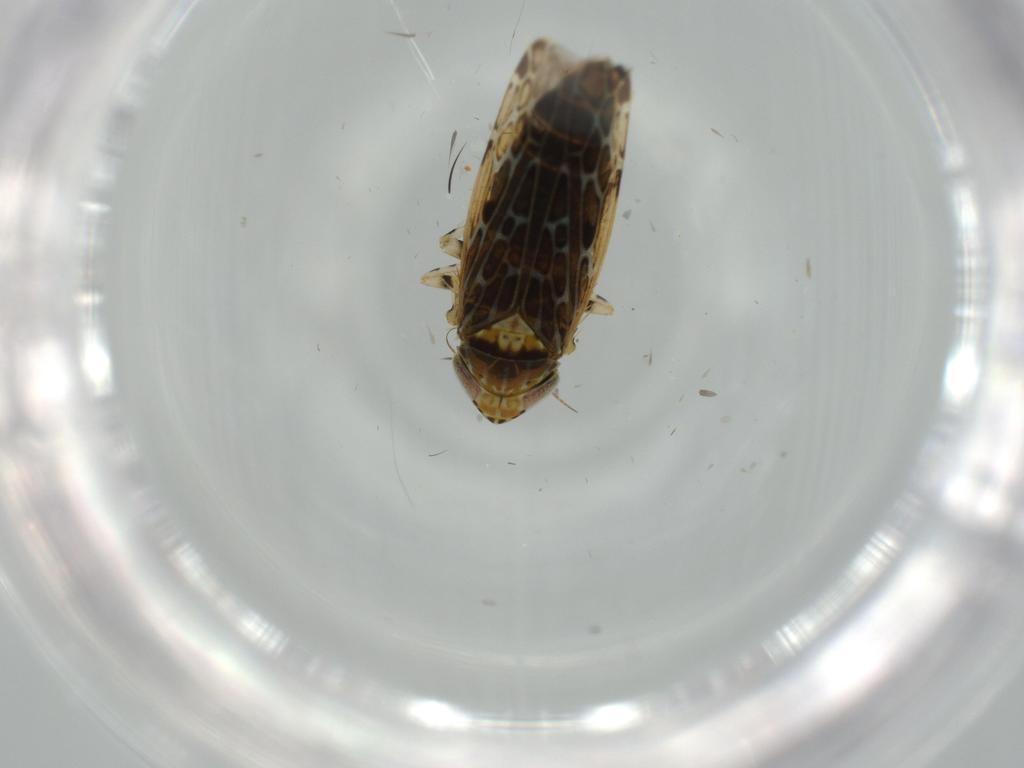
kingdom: Animalia
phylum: Arthropoda
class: Insecta
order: Hemiptera
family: Cicadellidae
